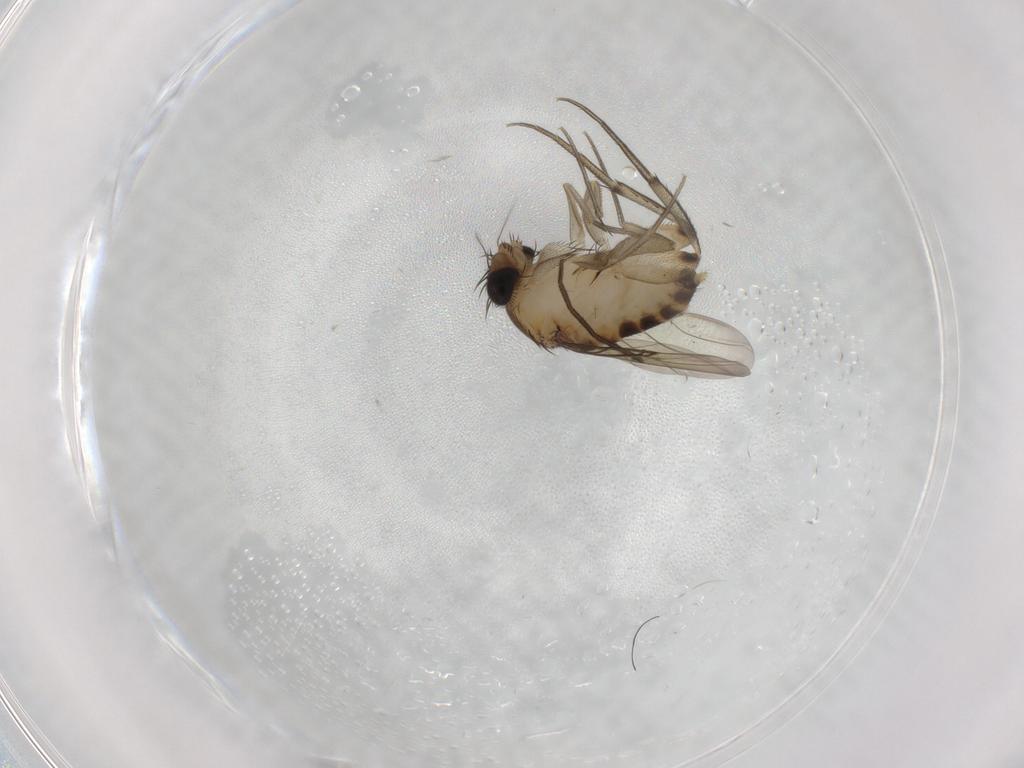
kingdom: Animalia
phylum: Arthropoda
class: Insecta
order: Diptera
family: Phoridae
